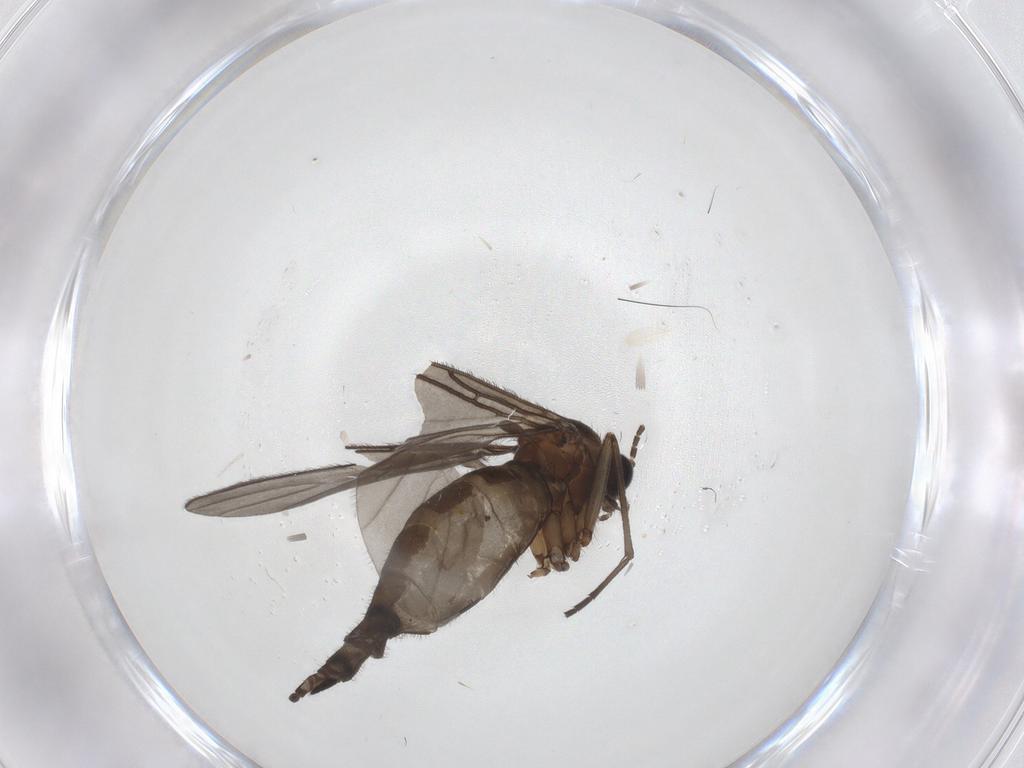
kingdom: Animalia
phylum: Arthropoda
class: Insecta
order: Diptera
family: Sciaridae
